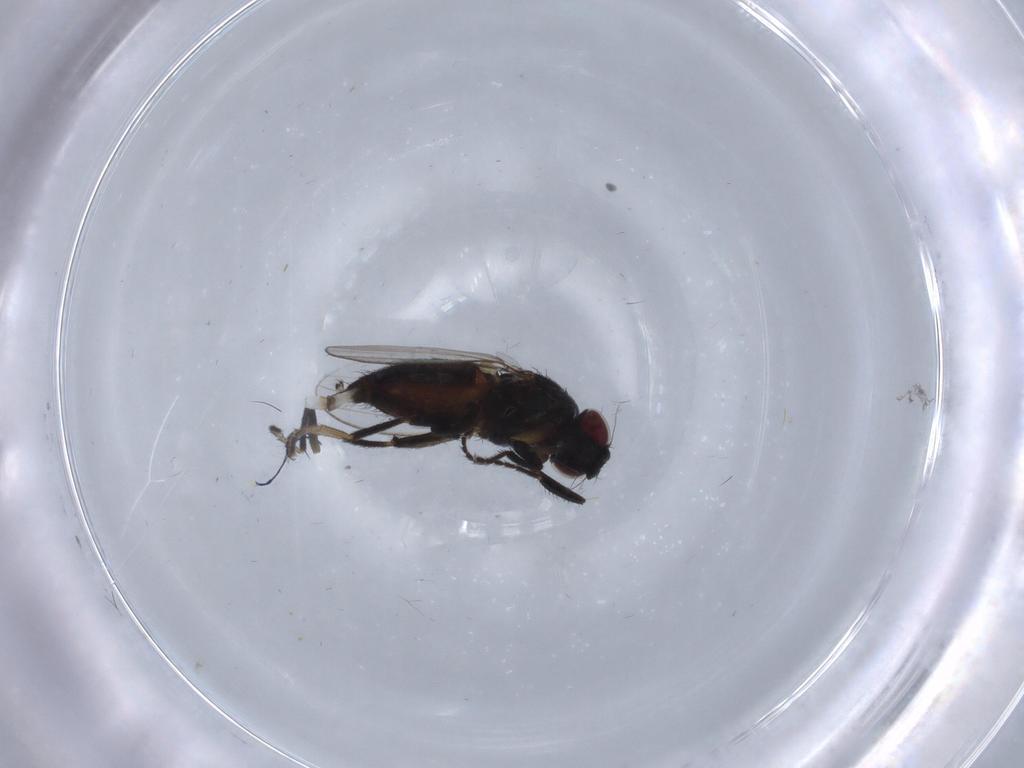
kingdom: Animalia
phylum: Arthropoda
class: Insecta
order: Diptera
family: Milichiidae
